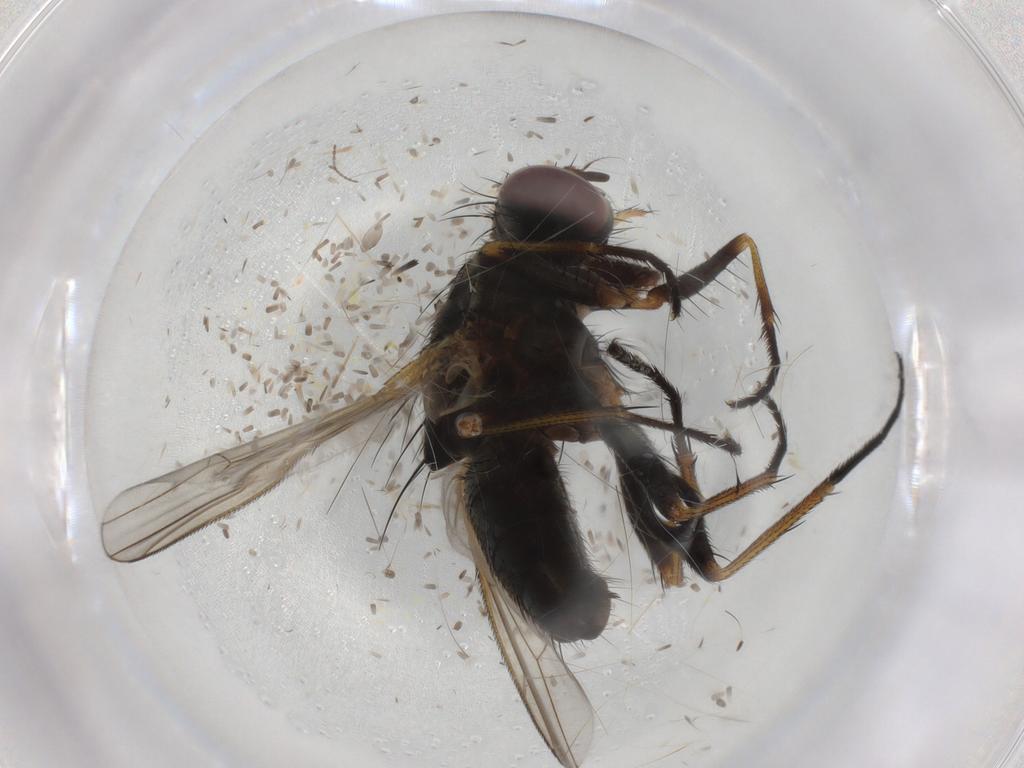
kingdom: Animalia
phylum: Arthropoda
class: Insecta
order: Diptera
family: Muscidae
